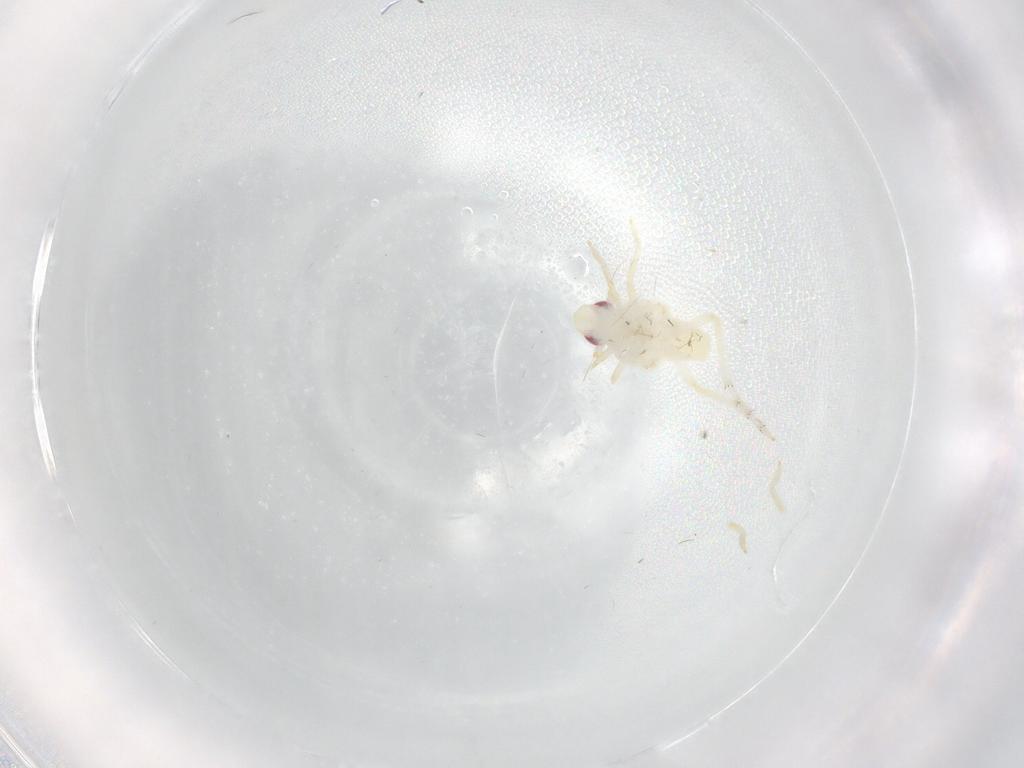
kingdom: Animalia
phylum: Arthropoda
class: Insecta
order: Hemiptera
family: Tropiduchidae
